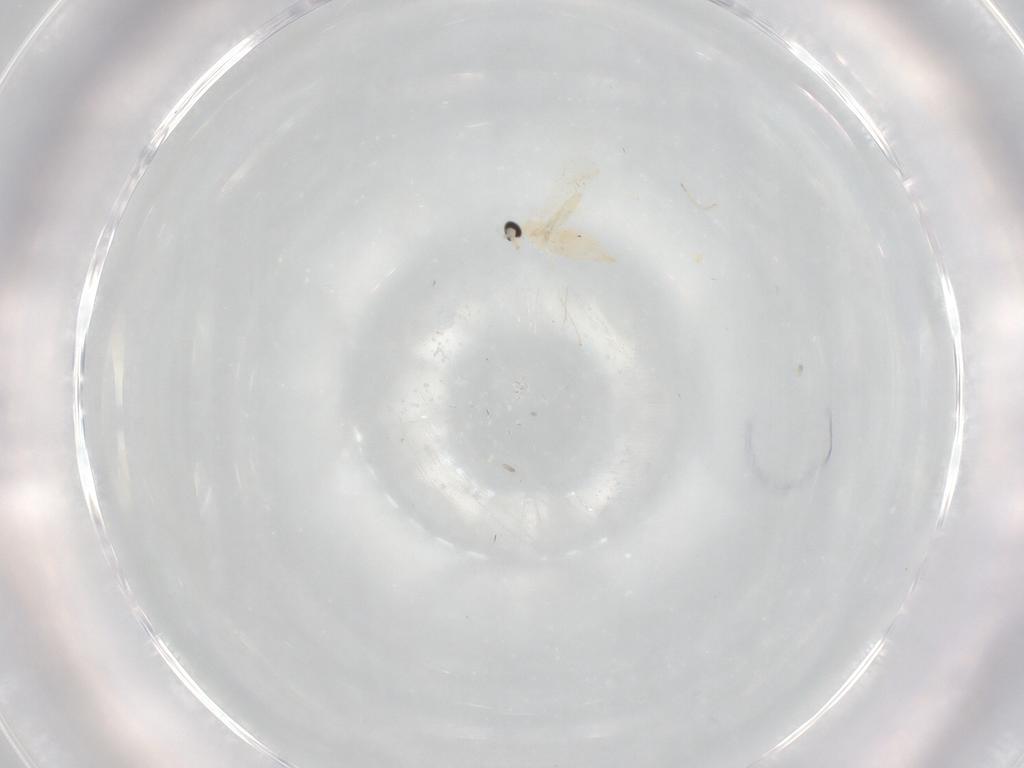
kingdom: Animalia
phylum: Arthropoda
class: Insecta
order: Diptera
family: Cecidomyiidae
